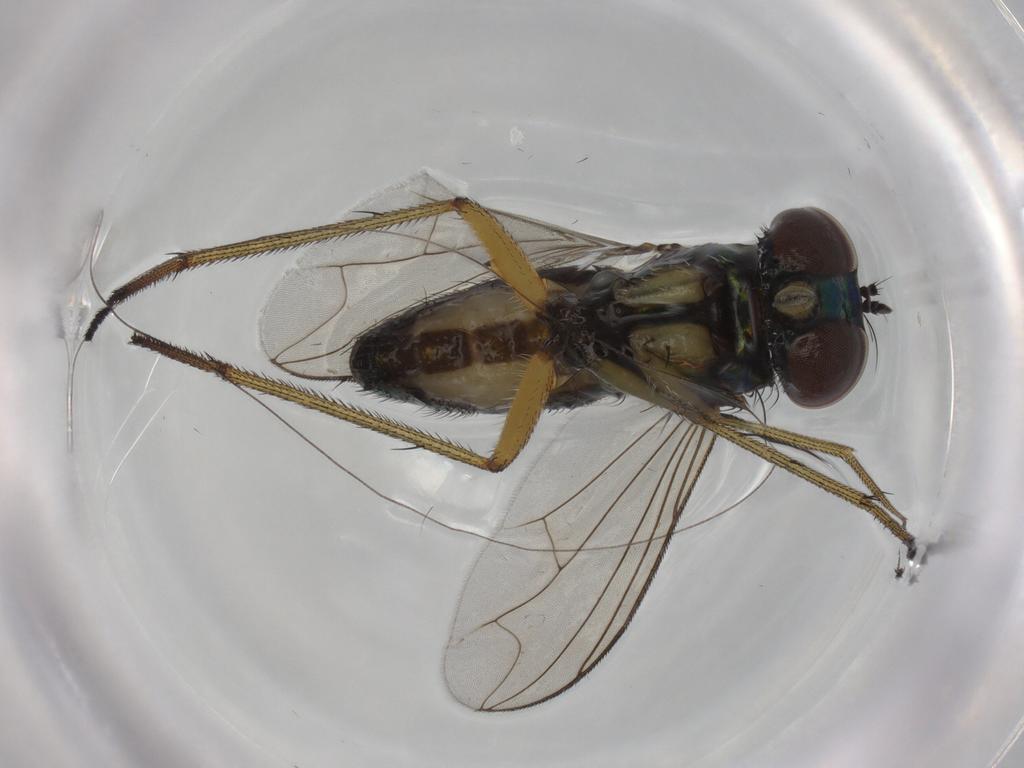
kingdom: Animalia
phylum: Arthropoda
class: Insecta
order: Diptera
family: Dolichopodidae
